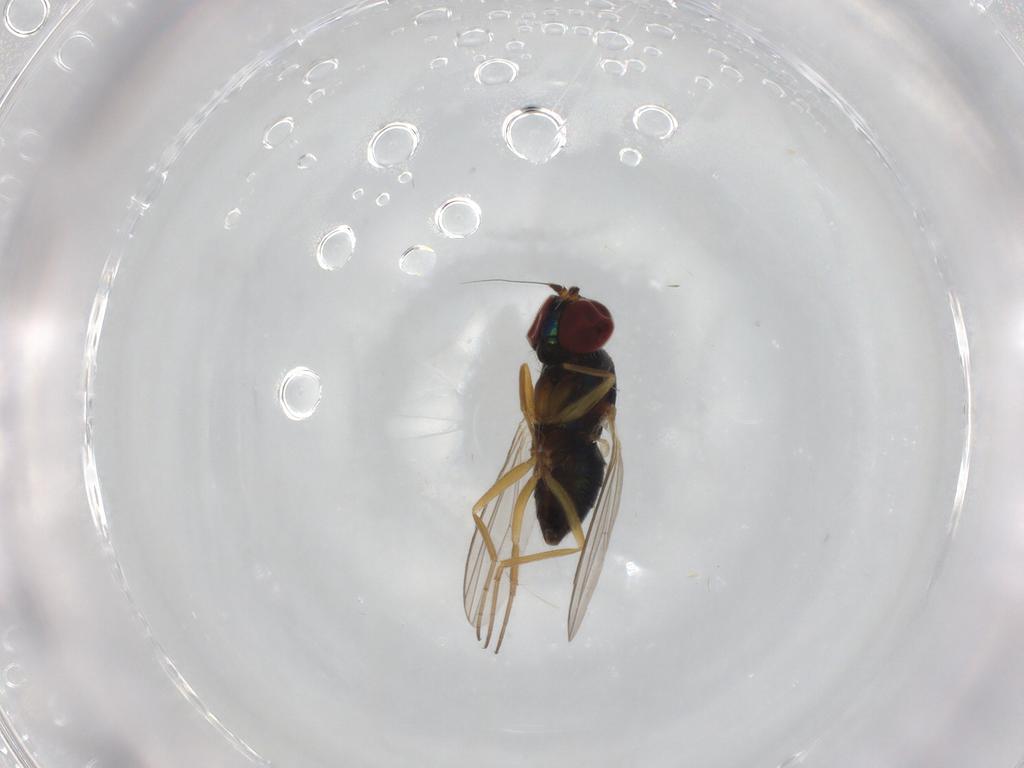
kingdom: Animalia
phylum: Arthropoda
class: Insecta
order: Diptera
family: Dolichopodidae
